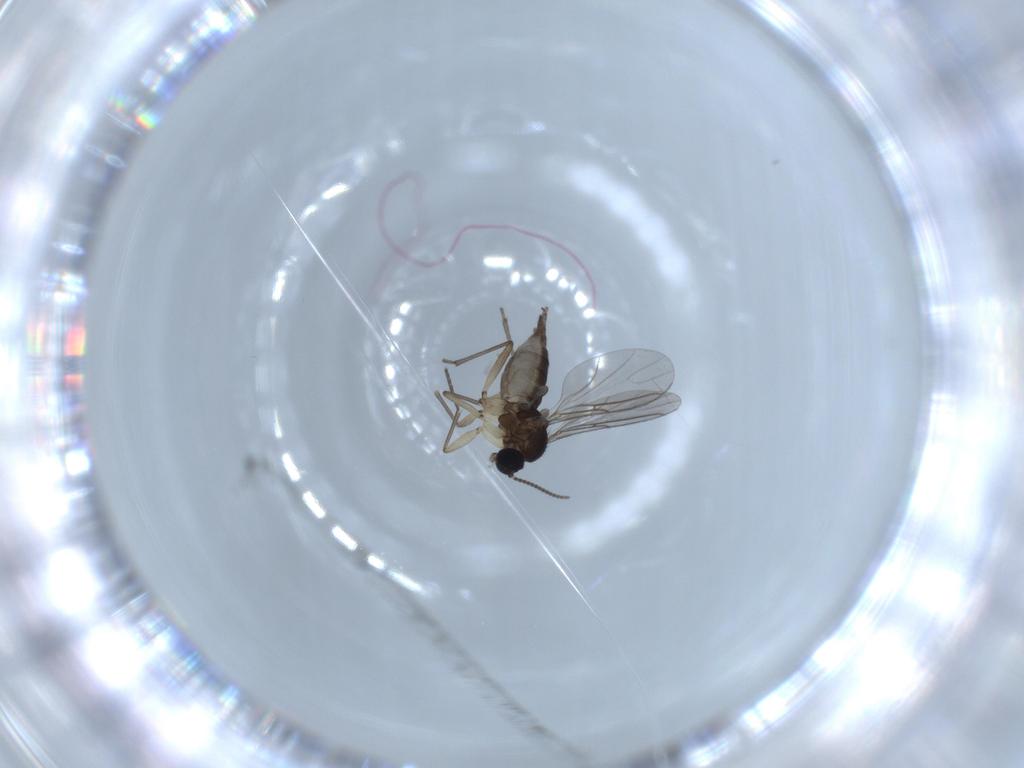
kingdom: Animalia
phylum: Arthropoda
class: Insecta
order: Diptera
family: Sciaridae
